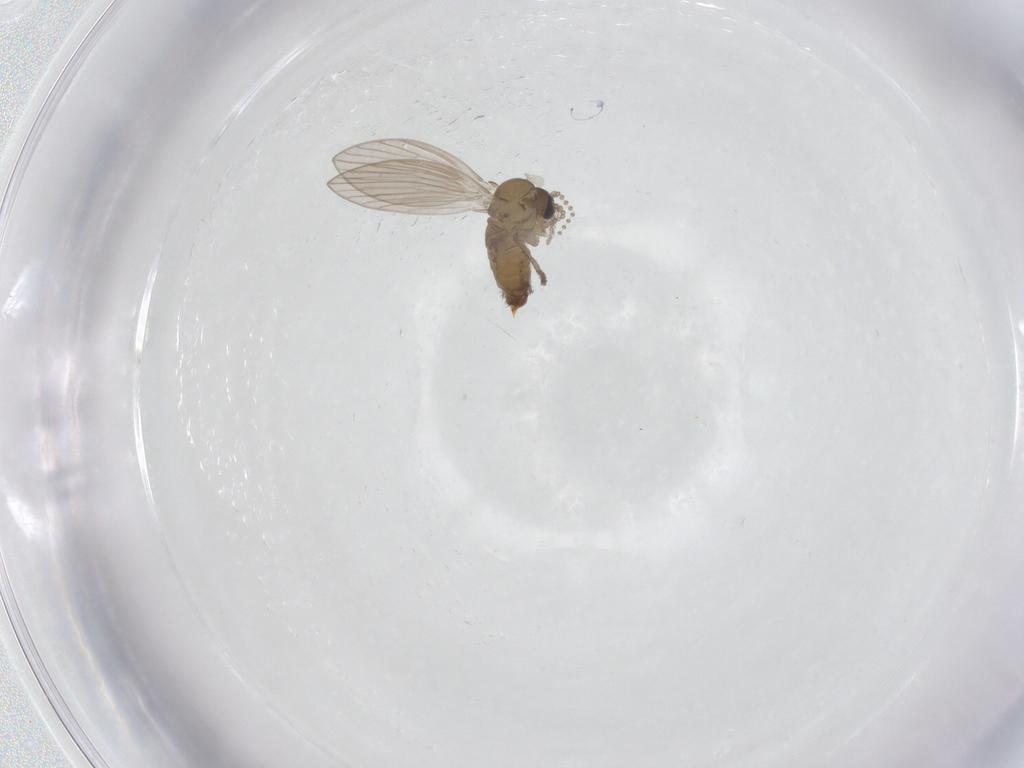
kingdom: Animalia
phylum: Arthropoda
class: Insecta
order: Diptera
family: Psychodidae
